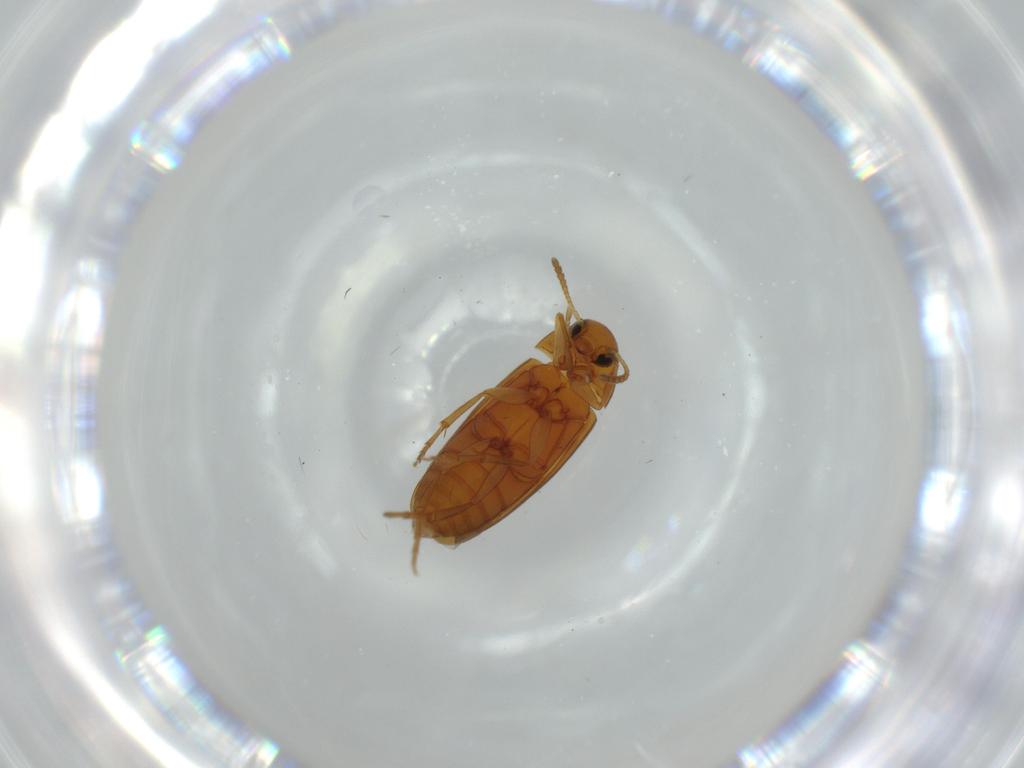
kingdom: Animalia
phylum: Arthropoda
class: Insecta
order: Coleoptera
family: Scraptiidae
